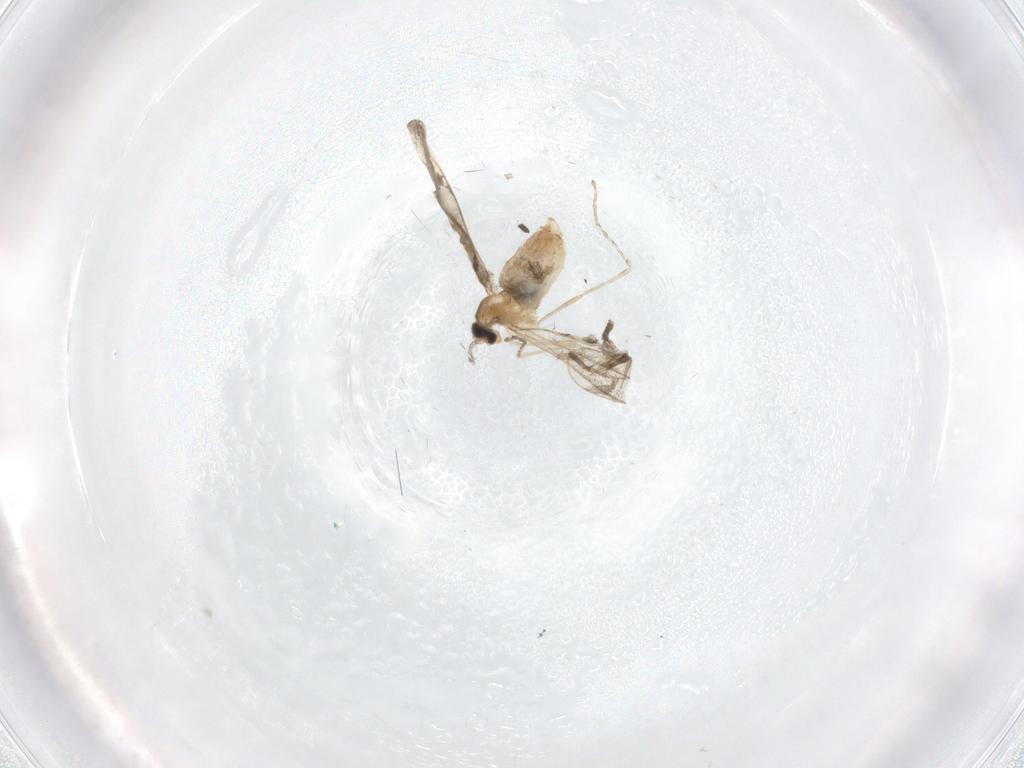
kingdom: Animalia
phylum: Arthropoda
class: Insecta
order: Diptera
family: Cecidomyiidae
